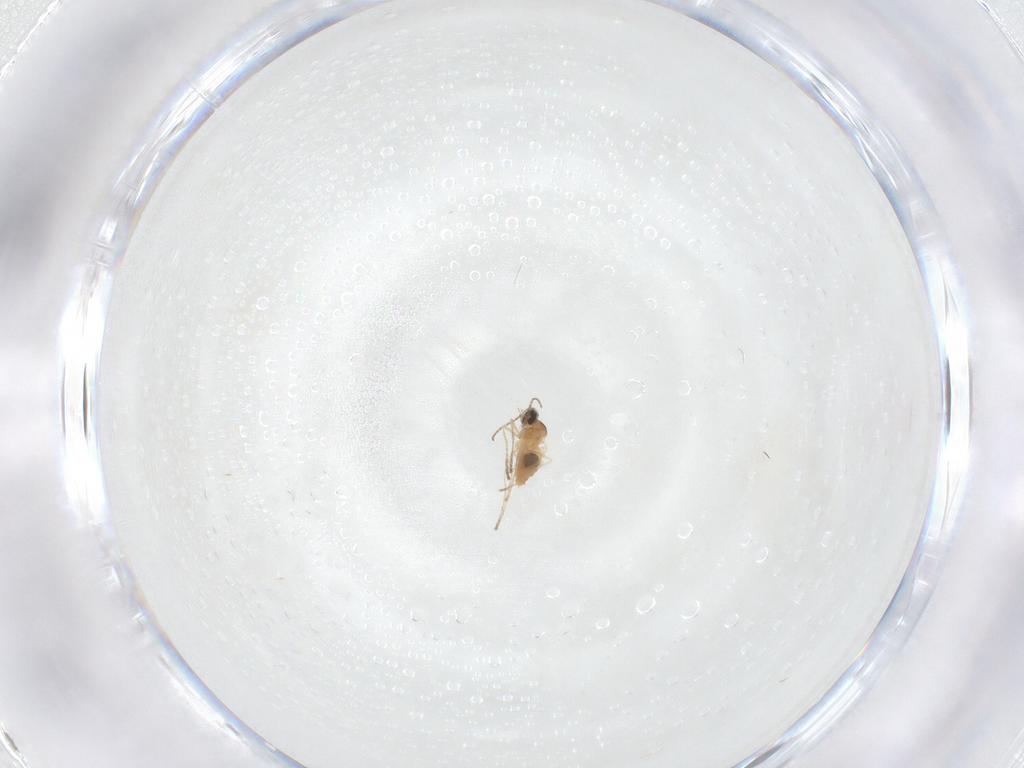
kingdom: Animalia
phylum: Arthropoda
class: Insecta
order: Diptera
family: Cecidomyiidae
